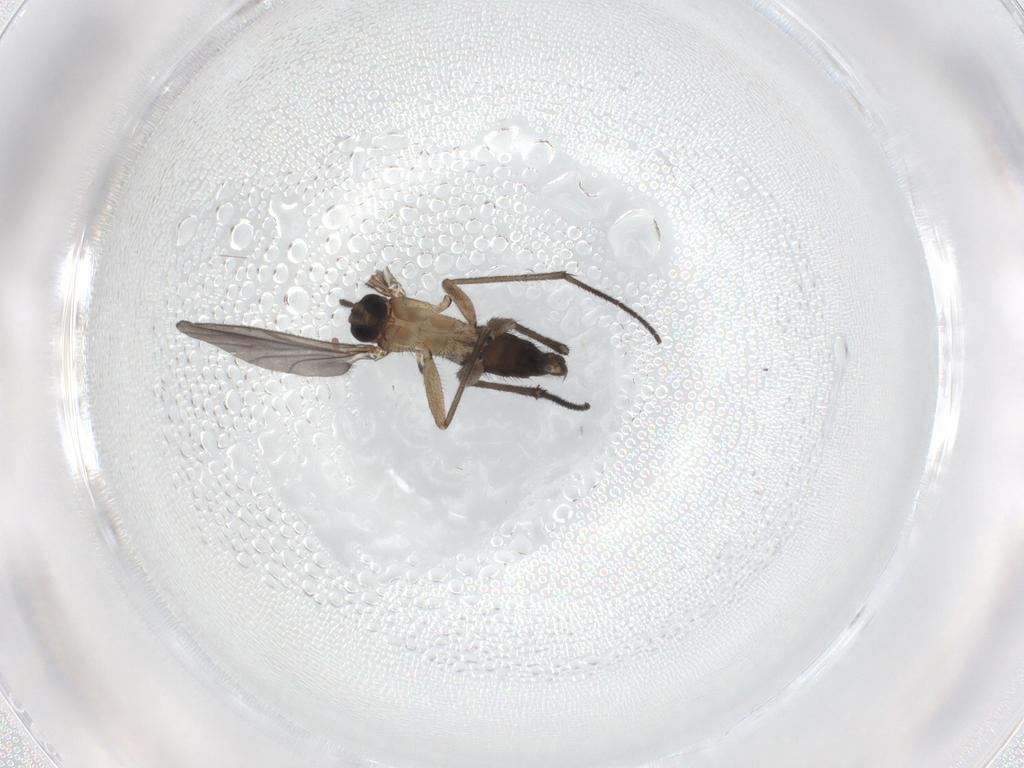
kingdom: Animalia
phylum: Arthropoda
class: Insecta
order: Diptera
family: Sciaridae
